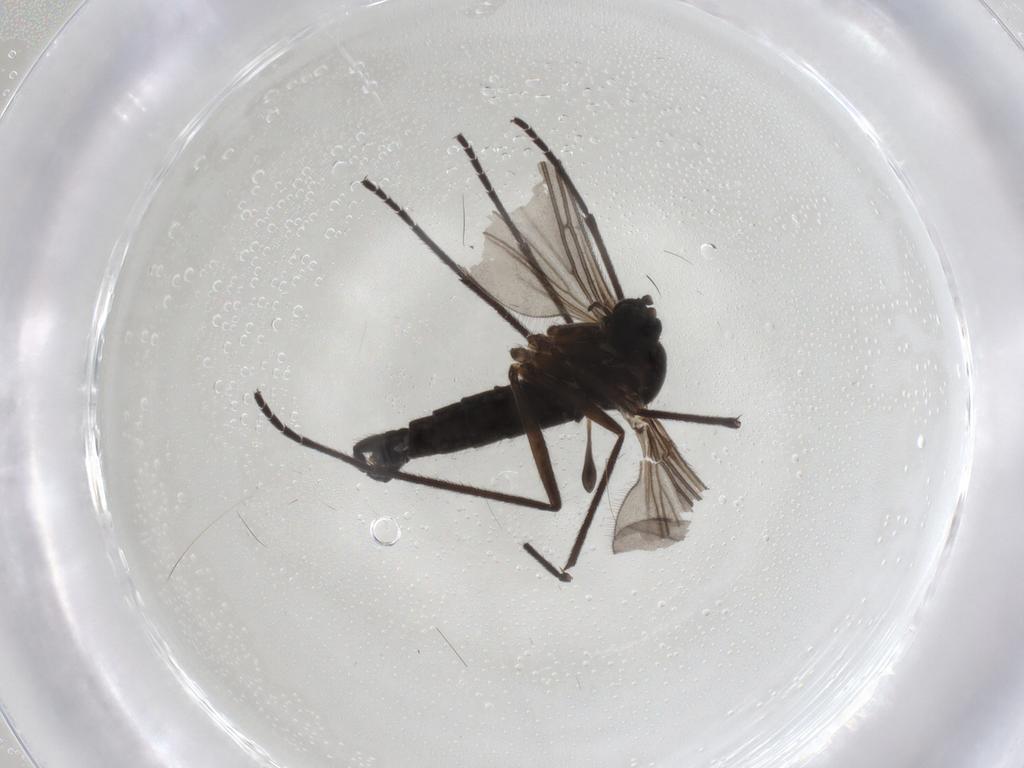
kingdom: Animalia
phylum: Arthropoda
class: Insecta
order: Diptera
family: Sciaridae
